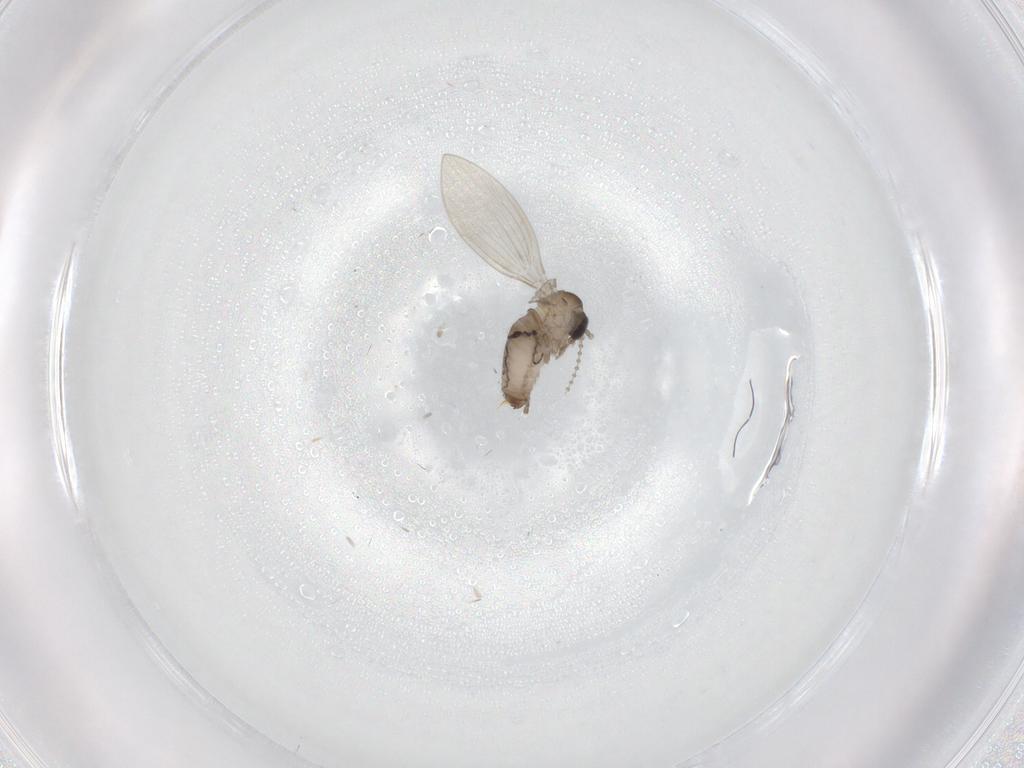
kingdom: Animalia
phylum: Arthropoda
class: Insecta
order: Diptera
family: Psychodidae
